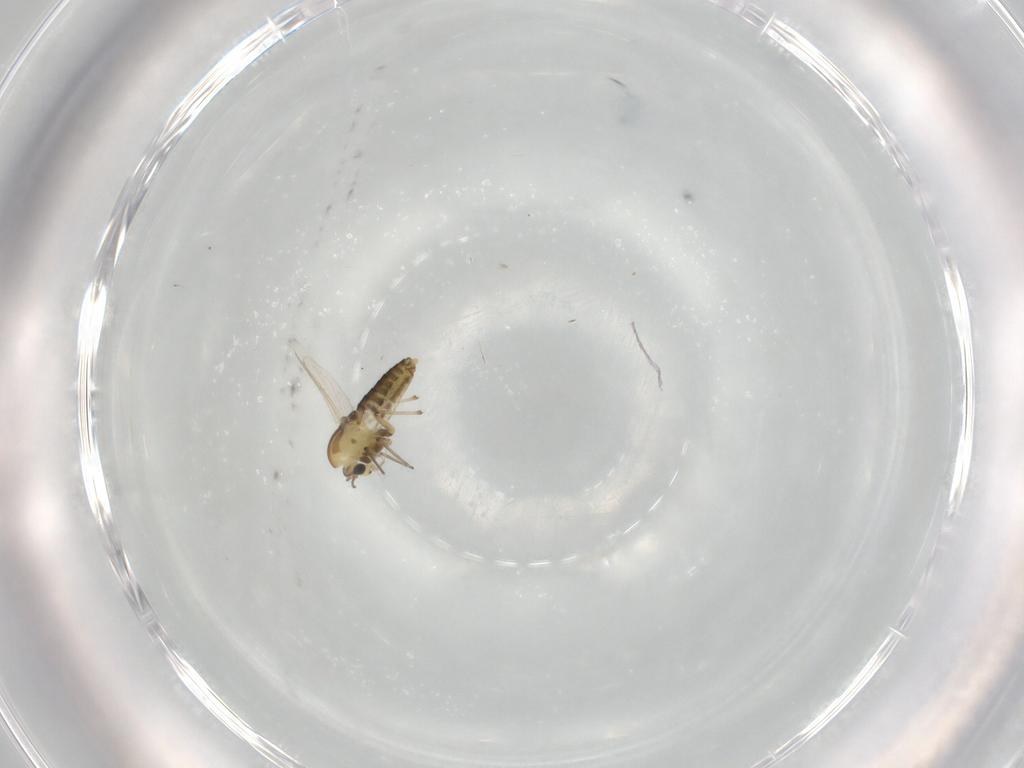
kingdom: Animalia
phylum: Arthropoda
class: Insecta
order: Diptera
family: Chironomidae
